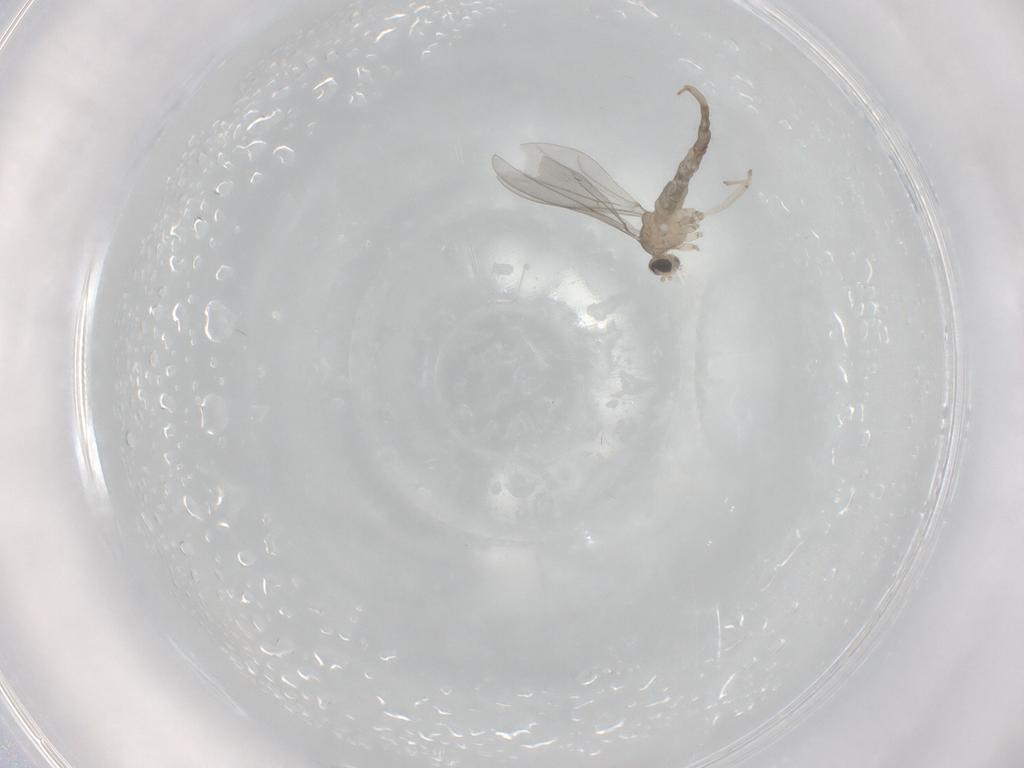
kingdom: Animalia
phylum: Arthropoda
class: Insecta
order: Diptera
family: Cecidomyiidae
